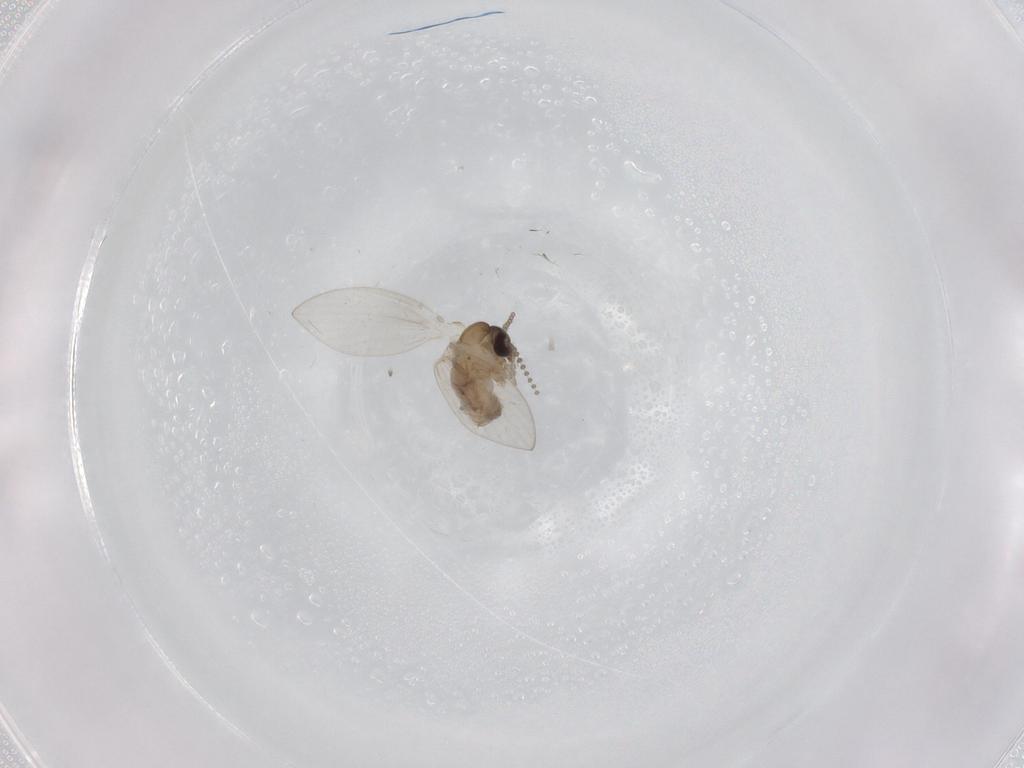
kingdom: Animalia
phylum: Arthropoda
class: Insecta
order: Diptera
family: Psychodidae
